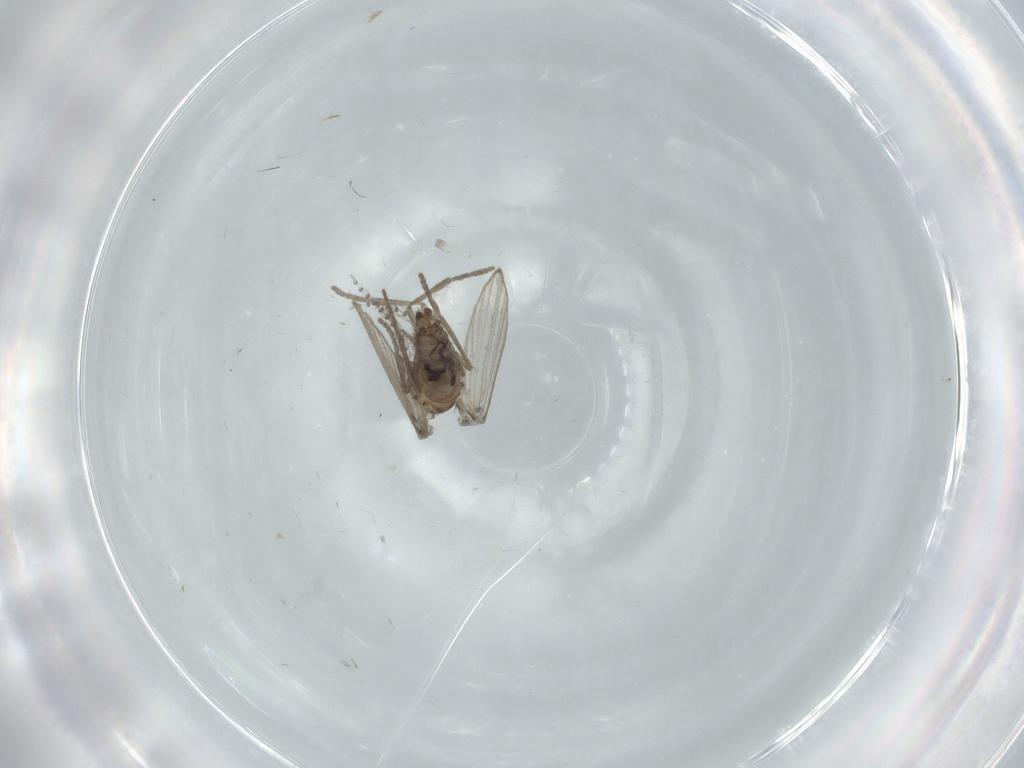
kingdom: Animalia
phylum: Arthropoda
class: Insecta
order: Diptera
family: Psychodidae
